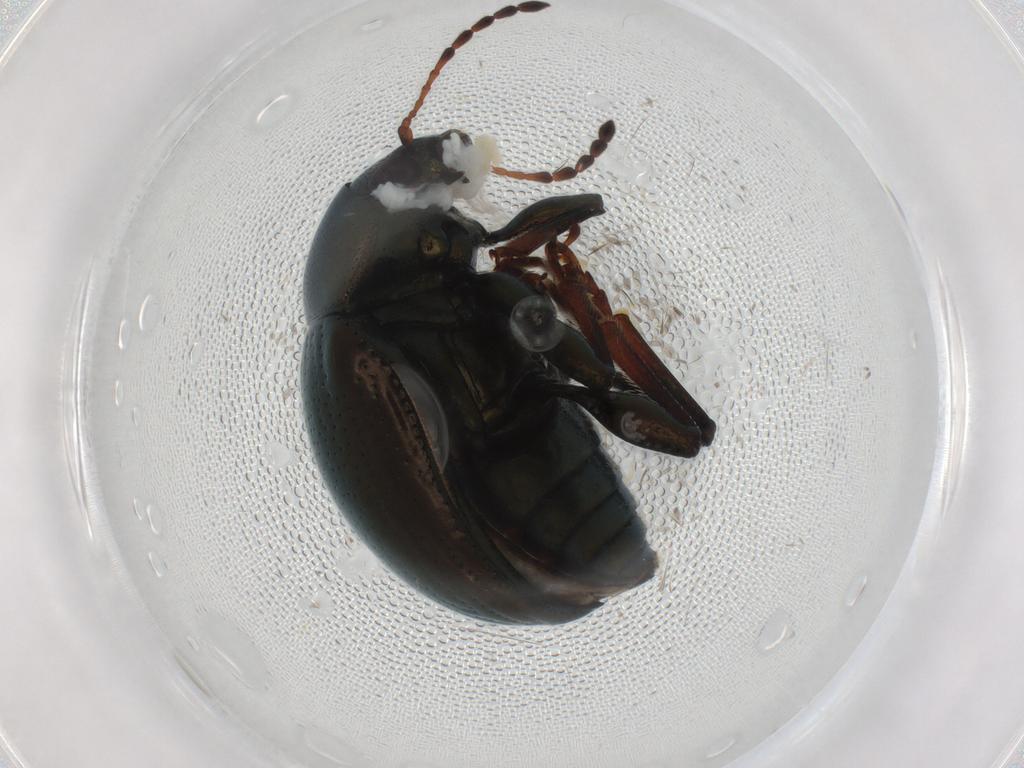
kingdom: Animalia
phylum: Arthropoda
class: Insecta
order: Coleoptera
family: Chrysomelidae
